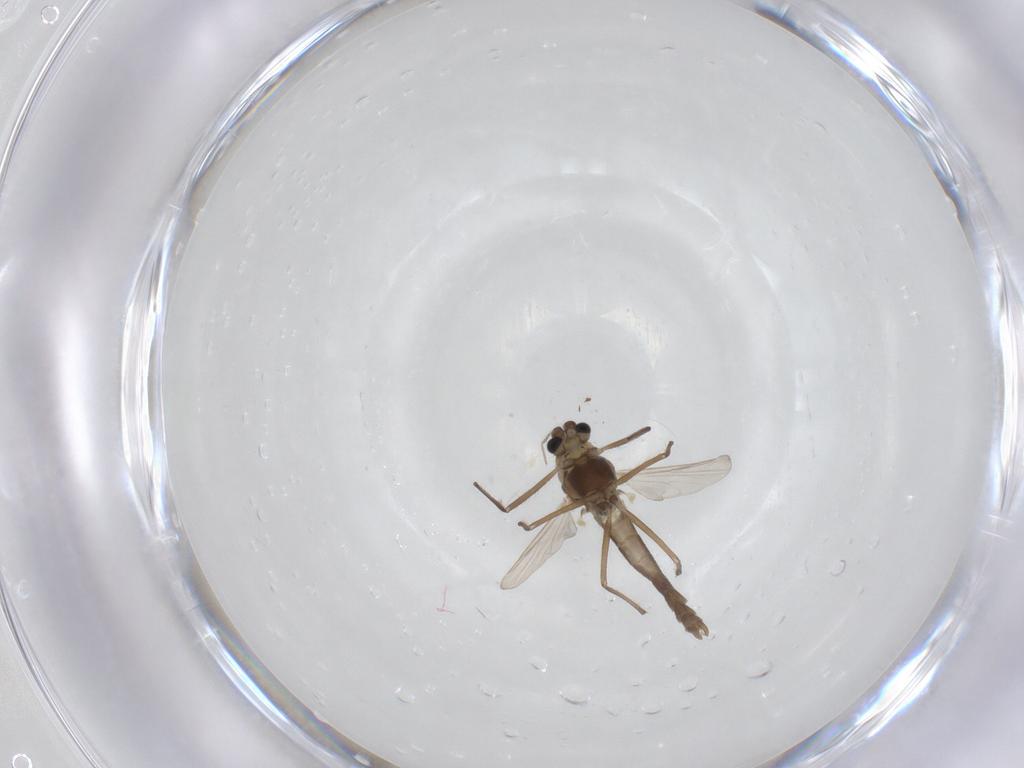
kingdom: Animalia
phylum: Arthropoda
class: Insecta
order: Diptera
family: Chironomidae
